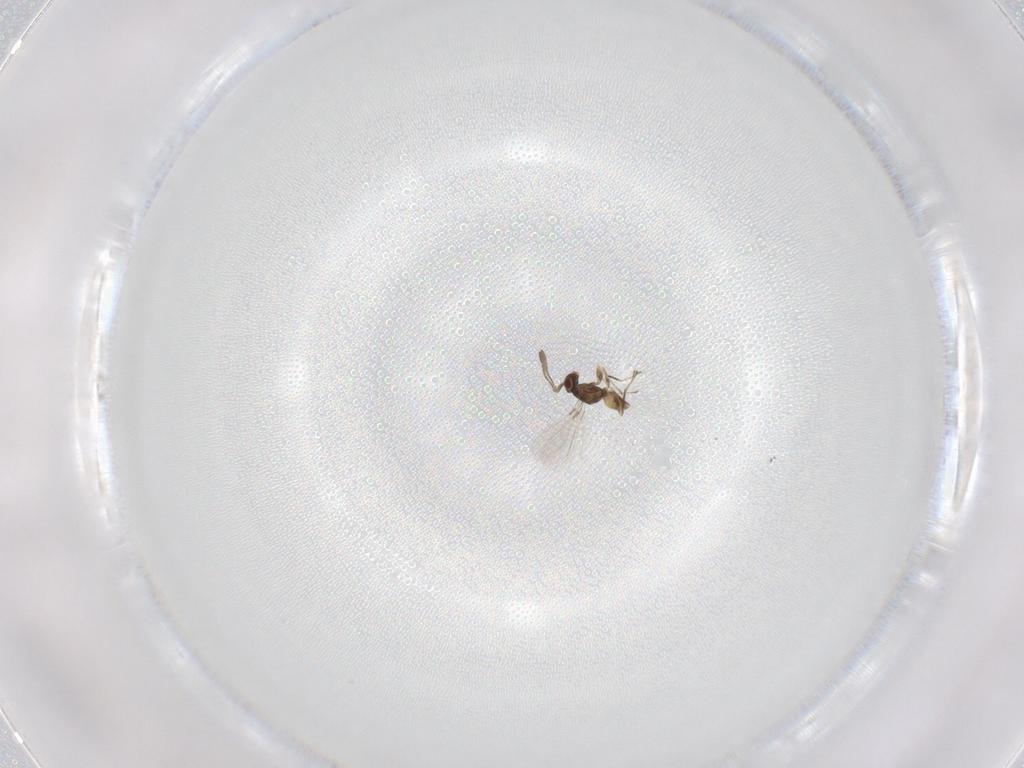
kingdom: Animalia
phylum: Arthropoda
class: Insecta
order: Hymenoptera
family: Mymaridae
